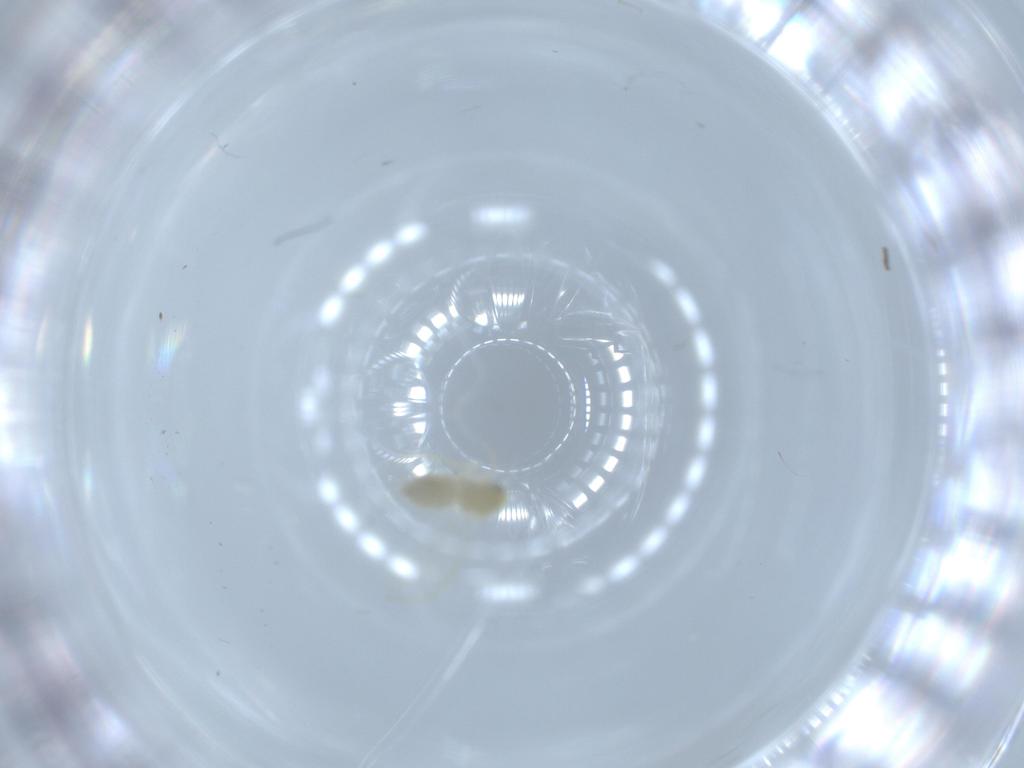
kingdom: Animalia
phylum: Arthropoda
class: Insecta
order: Hemiptera
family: Aleyrodidae
